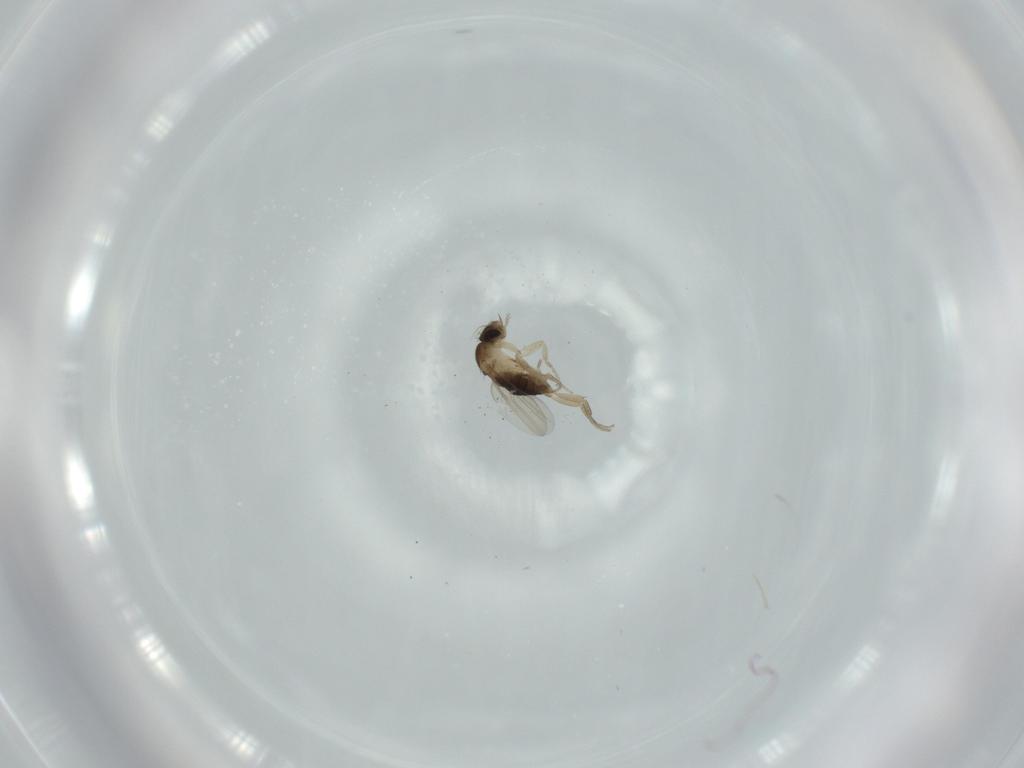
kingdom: Animalia
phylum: Arthropoda
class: Insecta
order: Diptera
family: Phoridae
